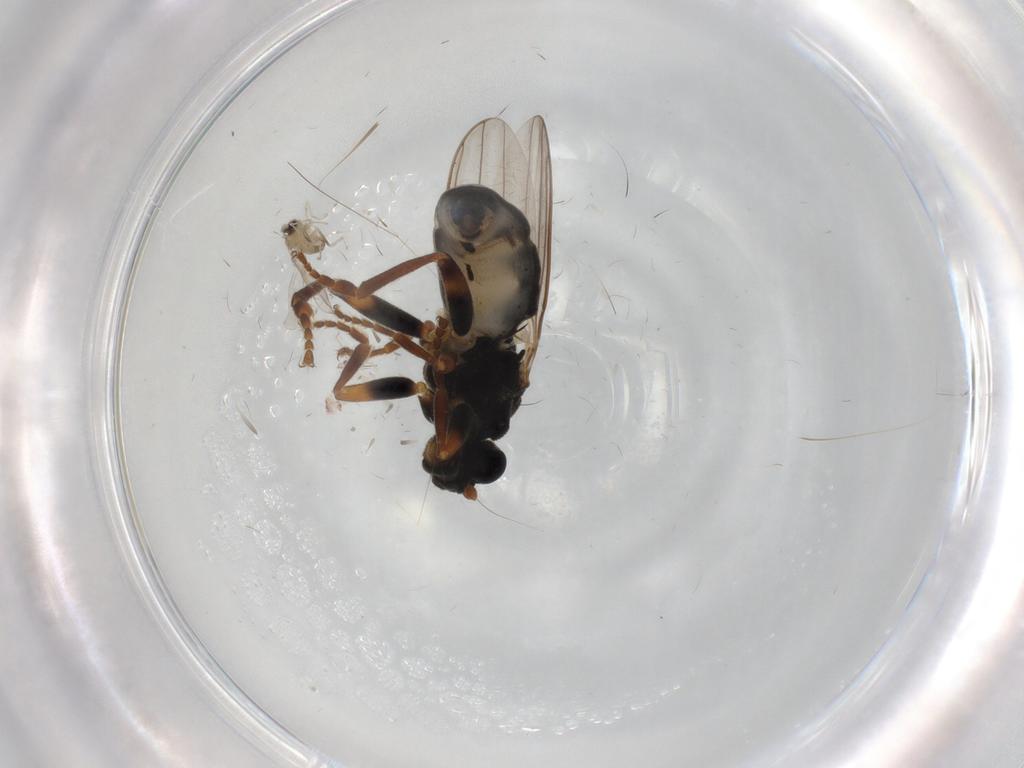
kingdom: Animalia
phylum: Arthropoda
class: Insecta
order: Diptera
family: Sphaeroceridae
